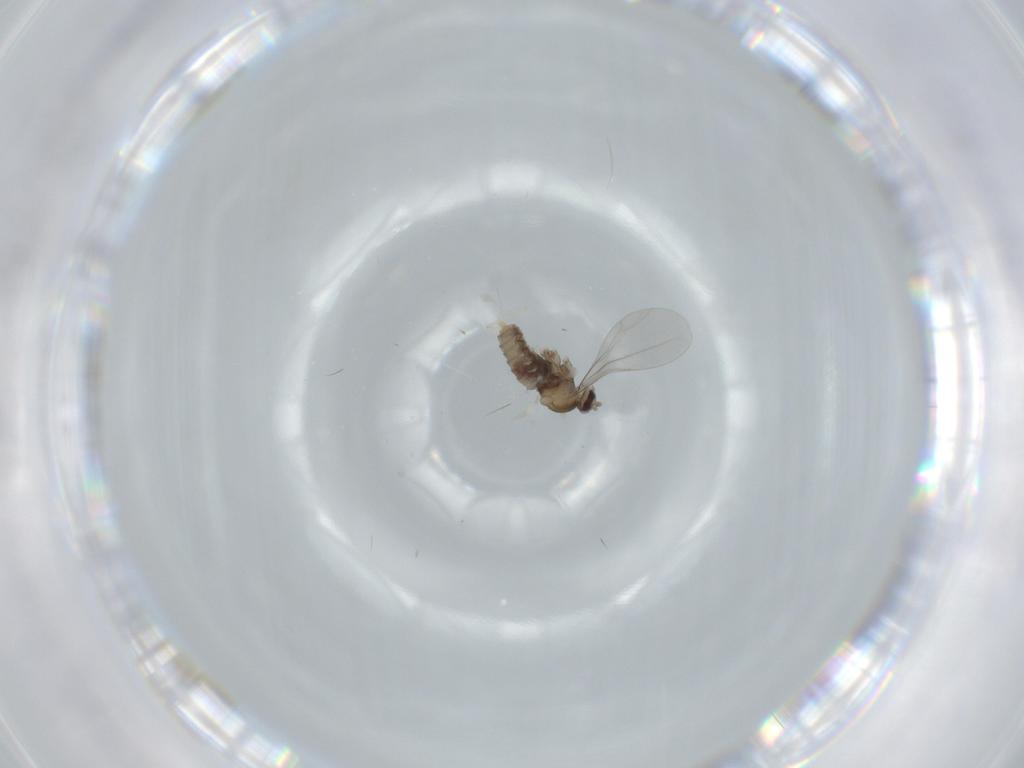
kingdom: Animalia
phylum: Arthropoda
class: Insecta
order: Diptera
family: Cecidomyiidae
